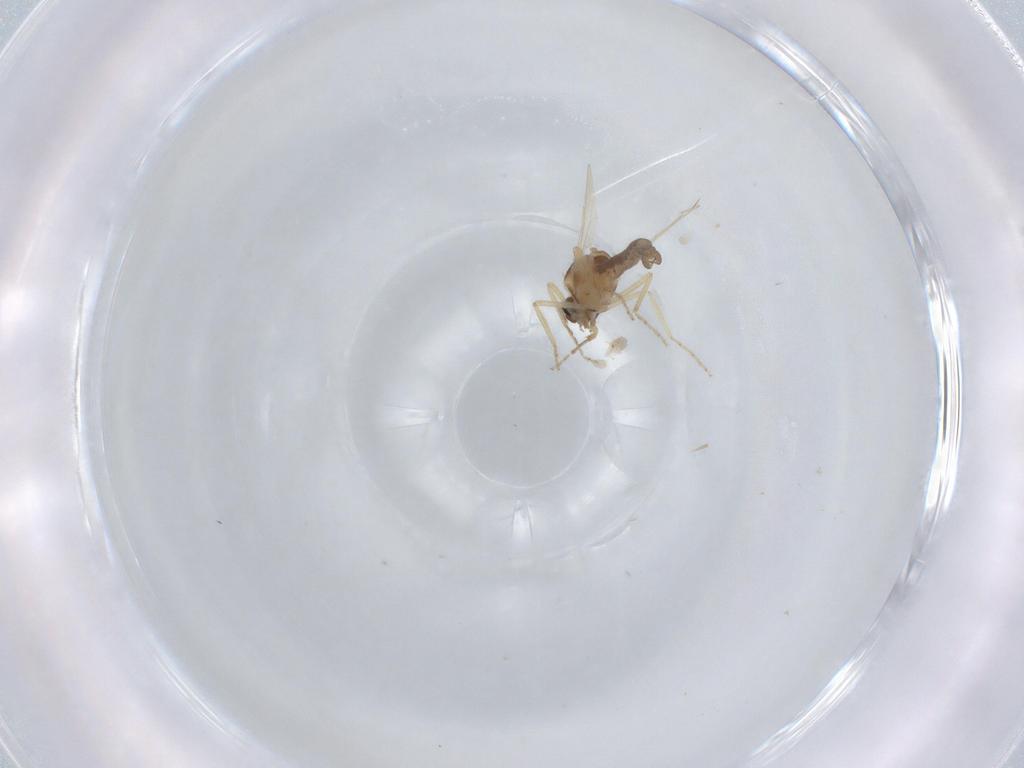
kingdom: Animalia
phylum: Arthropoda
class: Insecta
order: Diptera
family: Ceratopogonidae
